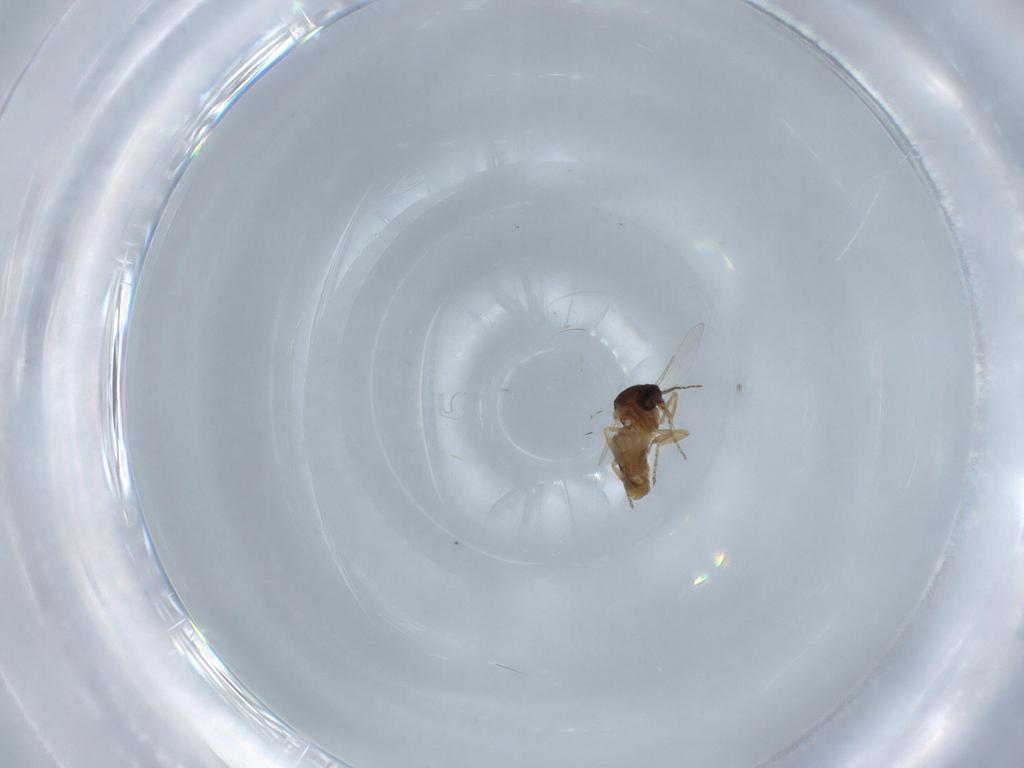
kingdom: Animalia
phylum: Arthropoda
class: Insecta
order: Diptera
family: Ceratopogonidae
